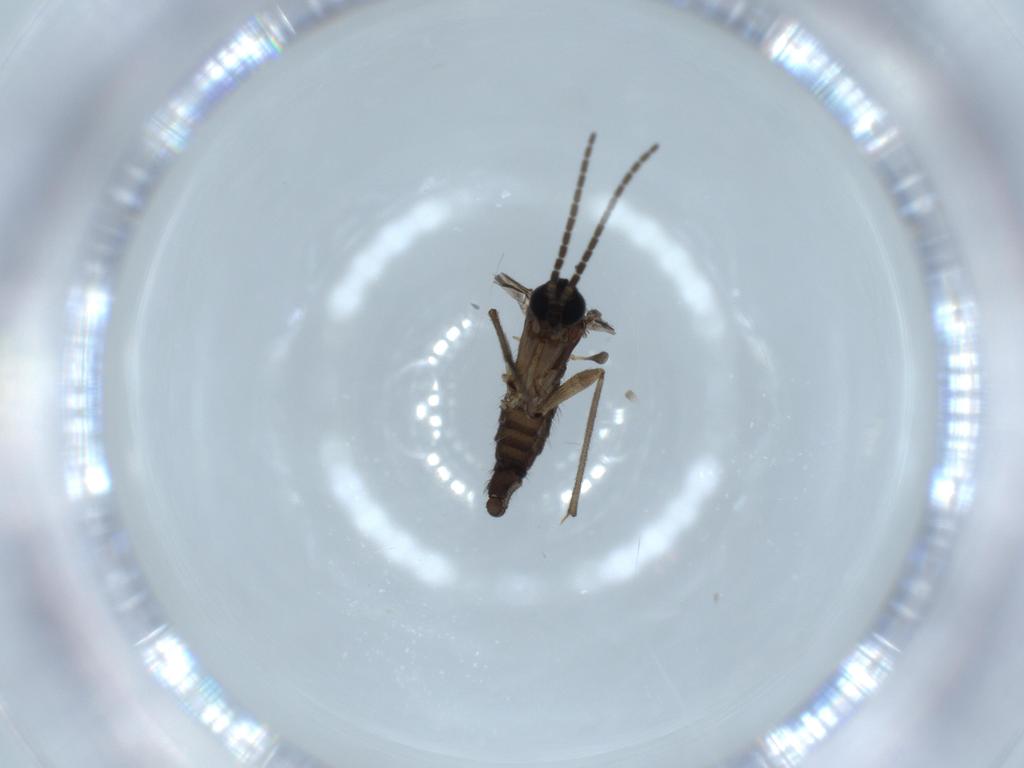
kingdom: Animalia
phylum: Arthropoda
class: Insecta
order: Diptera
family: Sciaridae
